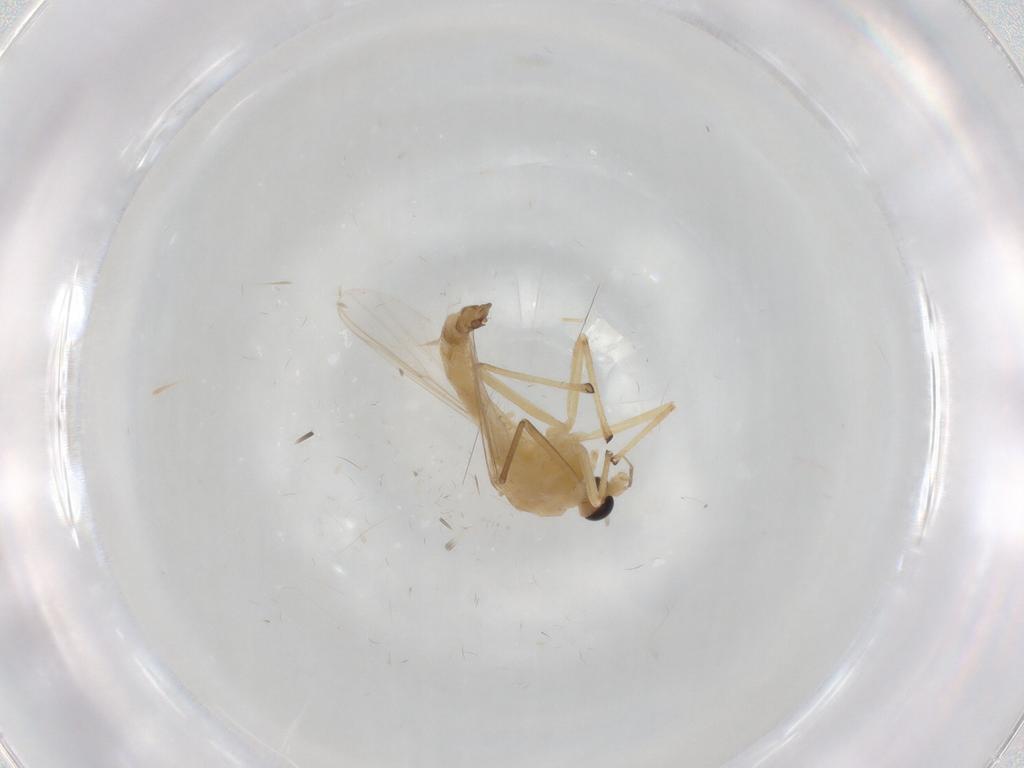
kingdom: Animalia
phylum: Arthropoda
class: Insecta
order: Diptera
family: Chironomidae
